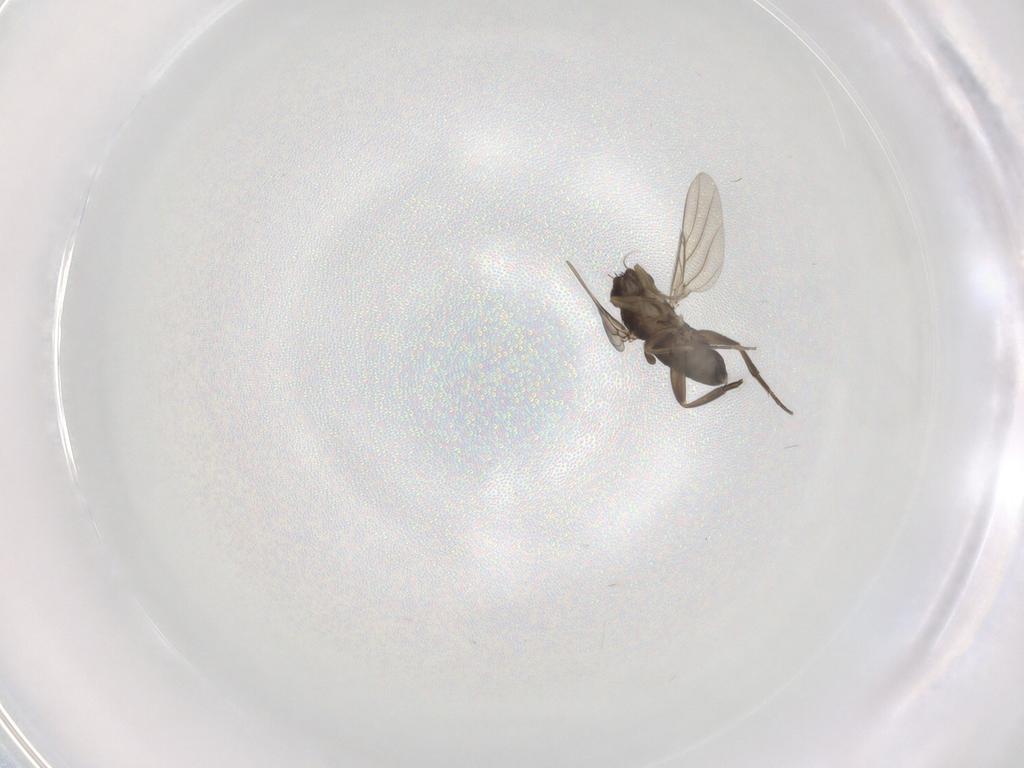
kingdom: Animalia
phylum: Arthropoda
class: Insecta
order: Diptera
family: Phoridae
